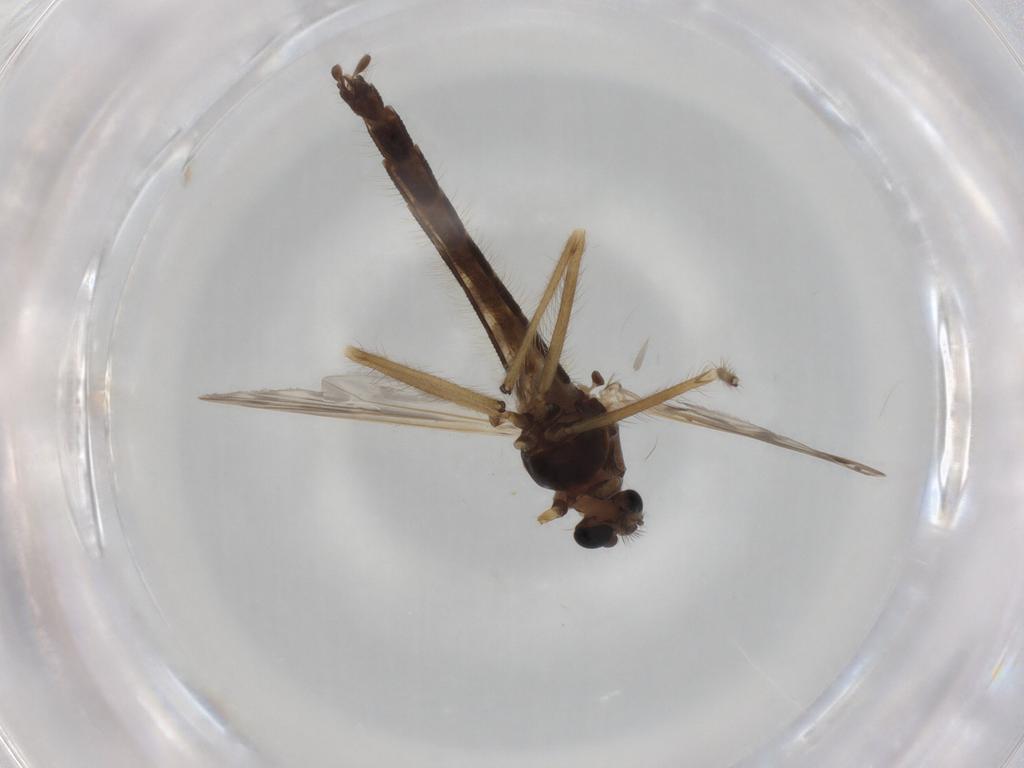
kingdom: Animalia
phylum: Arthropoda
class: Insecta
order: Diptera
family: Chironomidae
